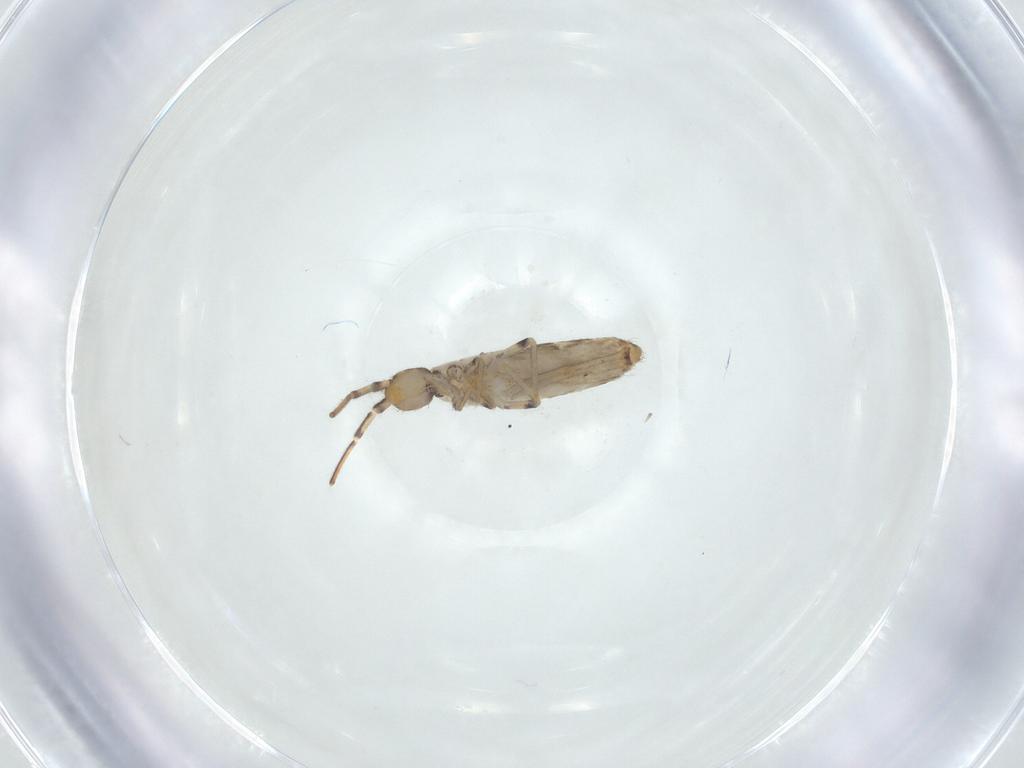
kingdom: Animalia
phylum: Arthropoda
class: Collembola
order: Entomobryomorpha
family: Entomobryidae
